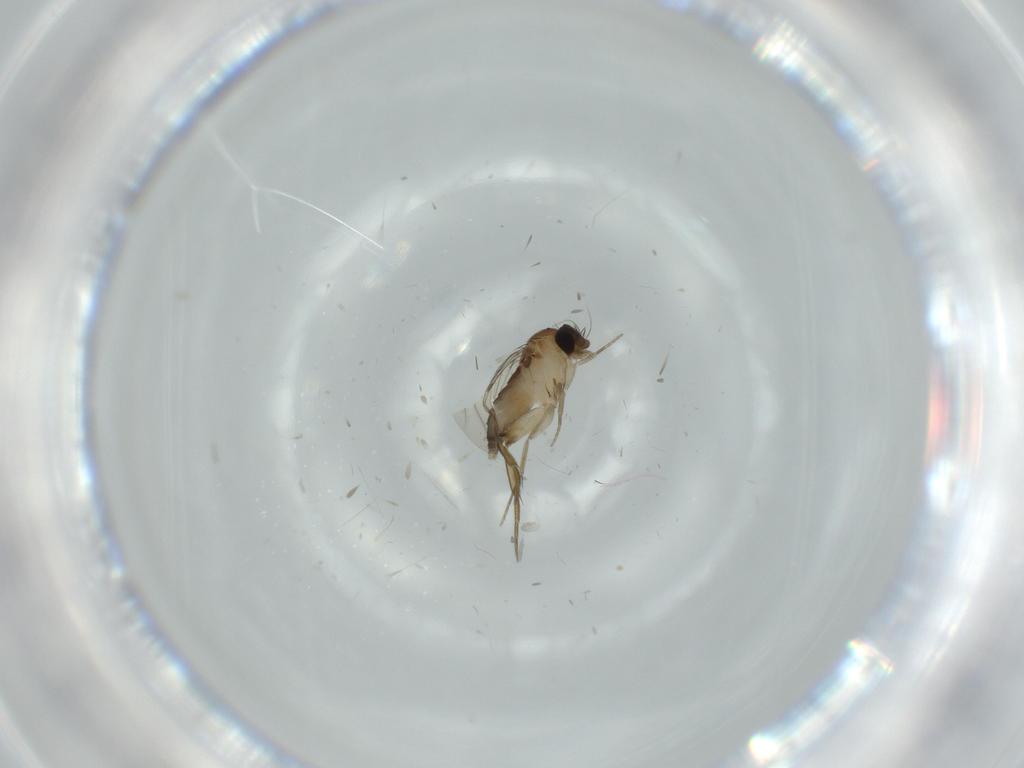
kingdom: Animalia
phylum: Arthropoda
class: Insecta
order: Diptera
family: Phoridae
